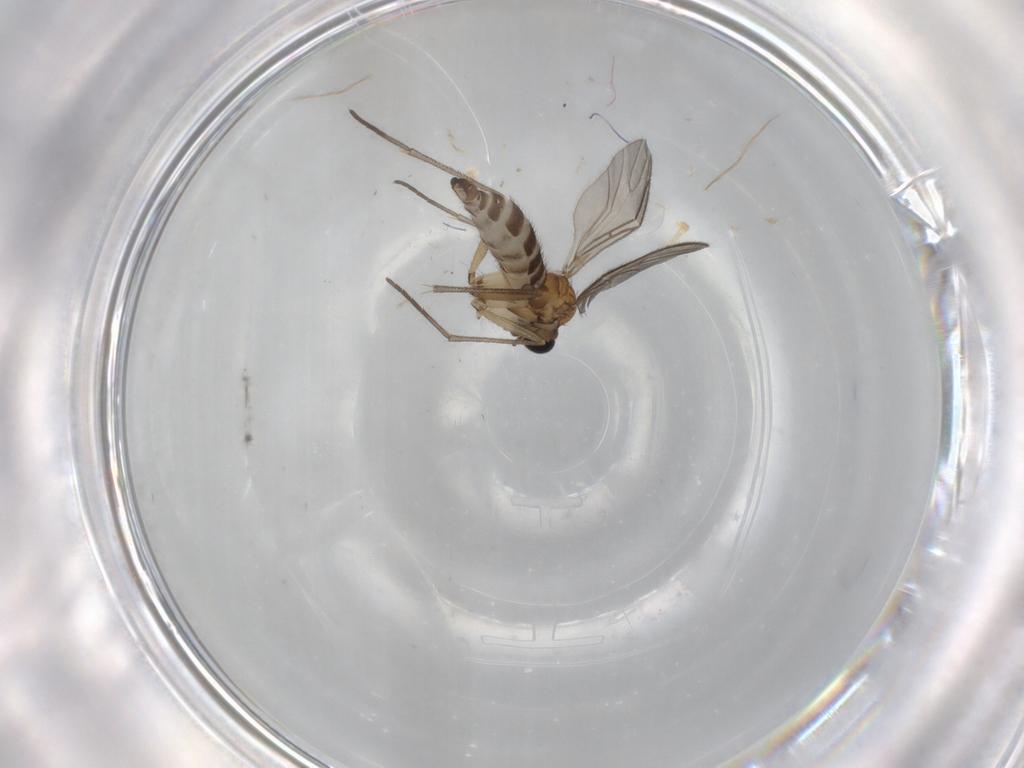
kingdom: Animalia
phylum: Arthropoda
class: Insecta
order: Diptera
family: Sciaridae
